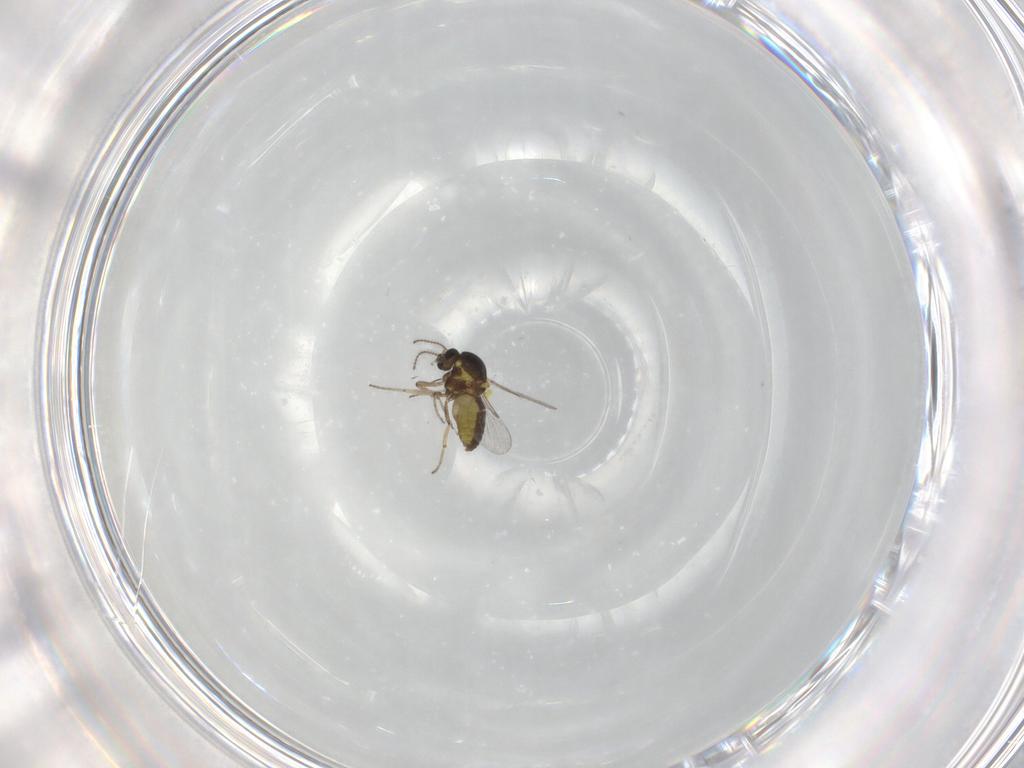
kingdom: Animalia
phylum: Arthropoda
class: Insecta
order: Diptera
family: Ceratopogonidae
